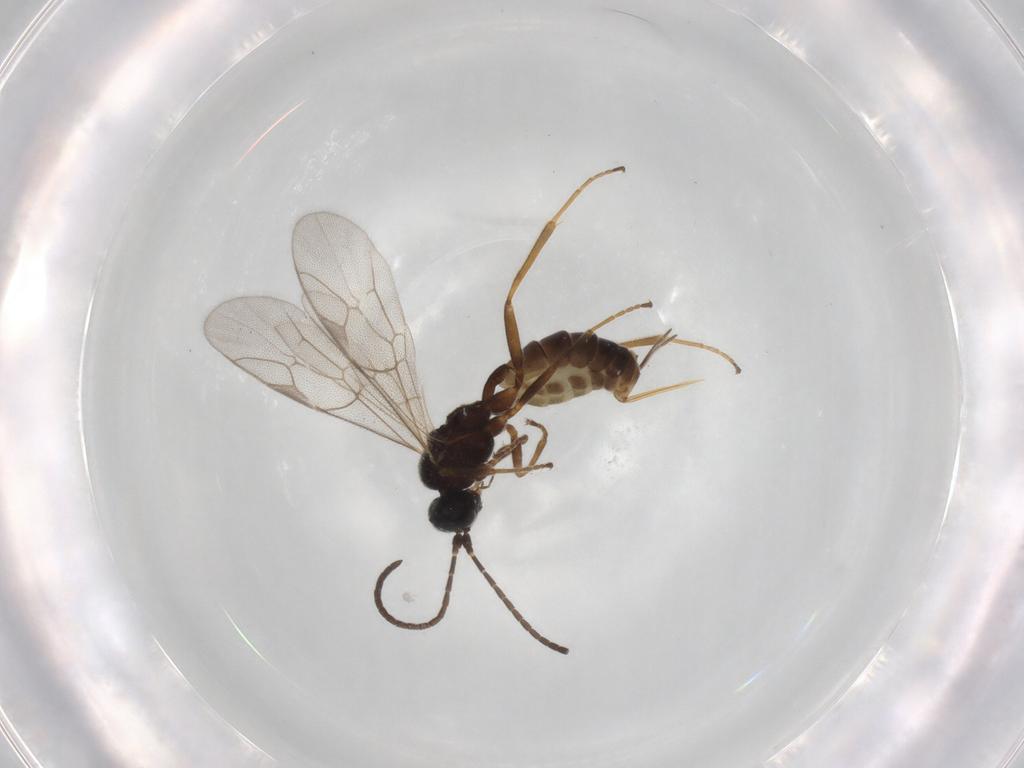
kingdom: Animalia
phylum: Arthropoda
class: Insecta
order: Hymenoptera
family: Ichneumonidae
